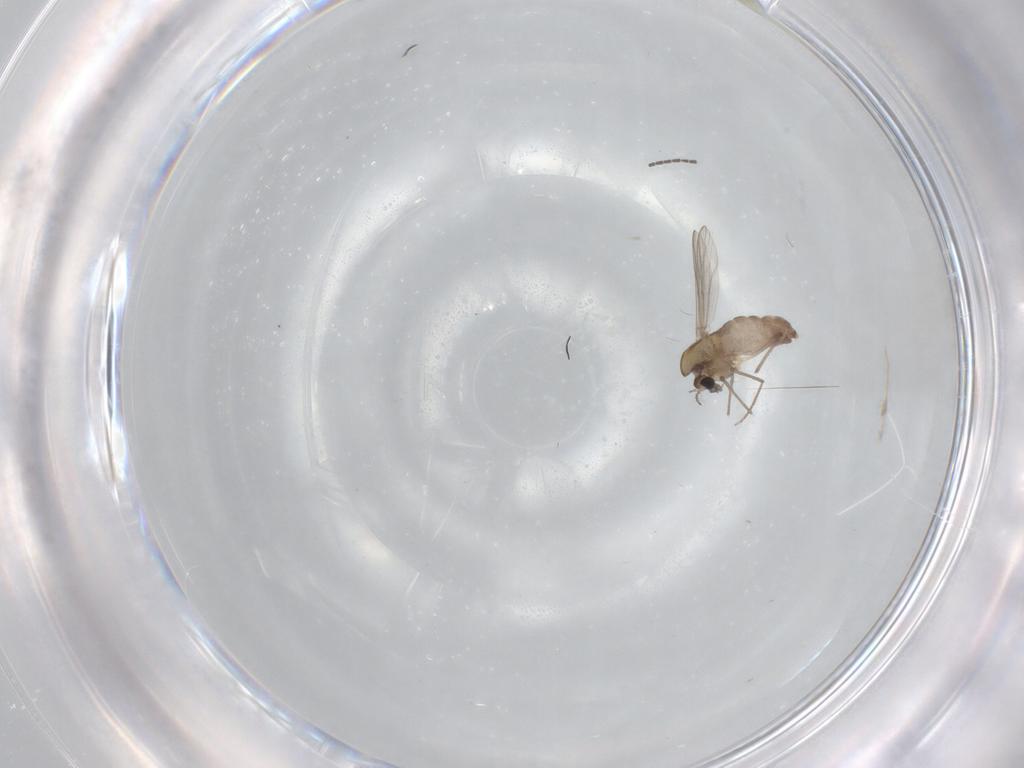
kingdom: Animalia
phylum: Arthropoda
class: Insecta
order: Diptera
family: Chironomidae
